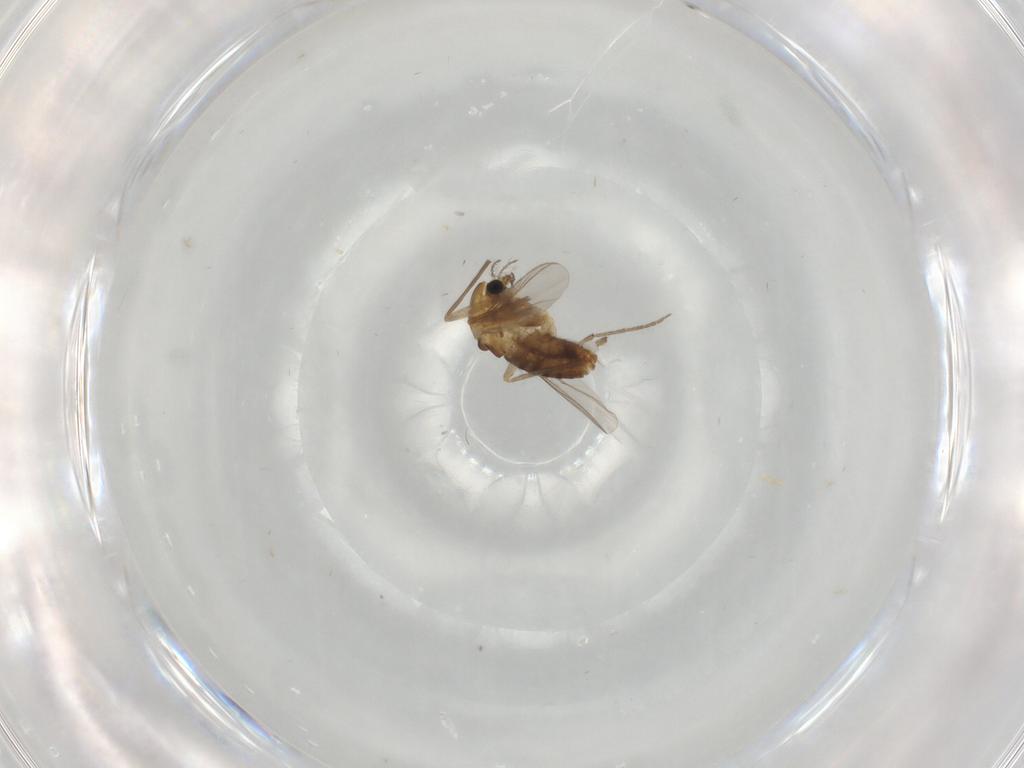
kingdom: Animalia
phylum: Arthropoda
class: Insecta
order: Diptera
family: Chironomidae
